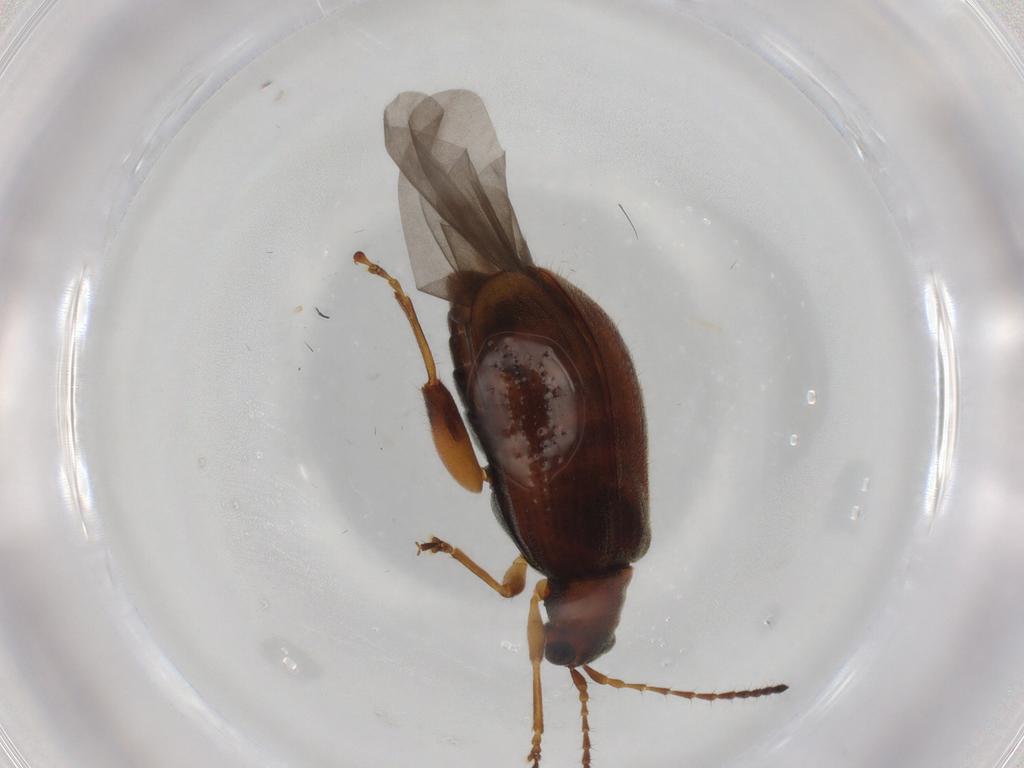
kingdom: Animalia
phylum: Arthropoda
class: Insecta
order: Coleoptera
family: Chrysomelidae
